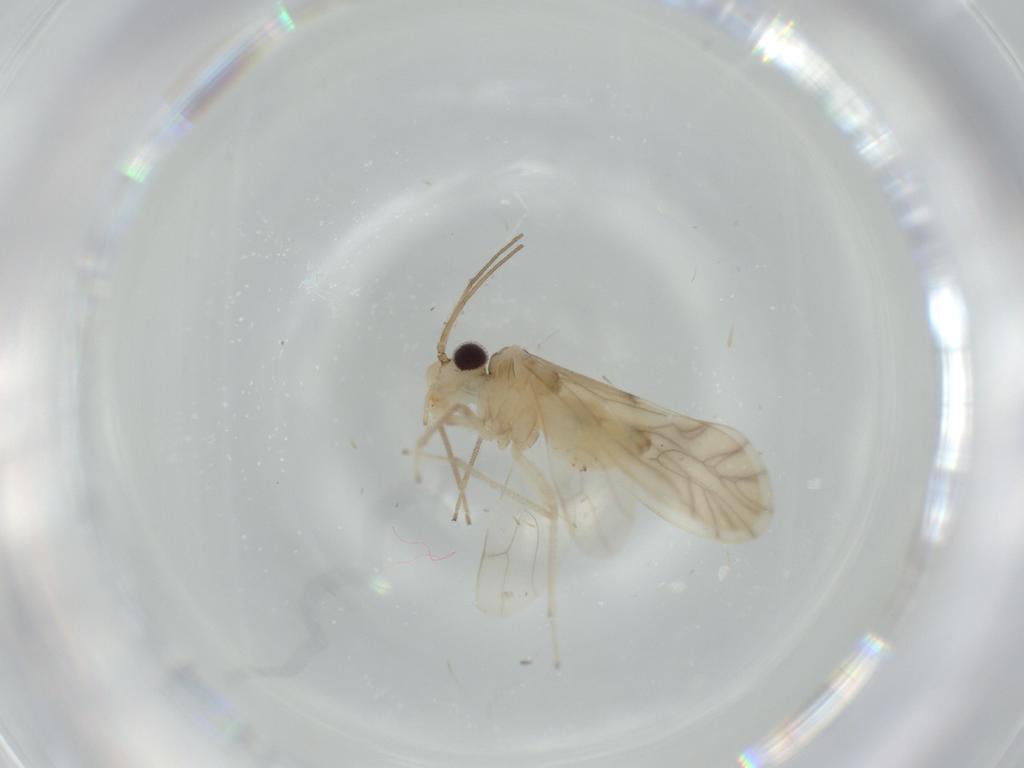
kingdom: Animalia
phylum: Arthropoda
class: Insecta
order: Psocodea
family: Caeciliusidae
